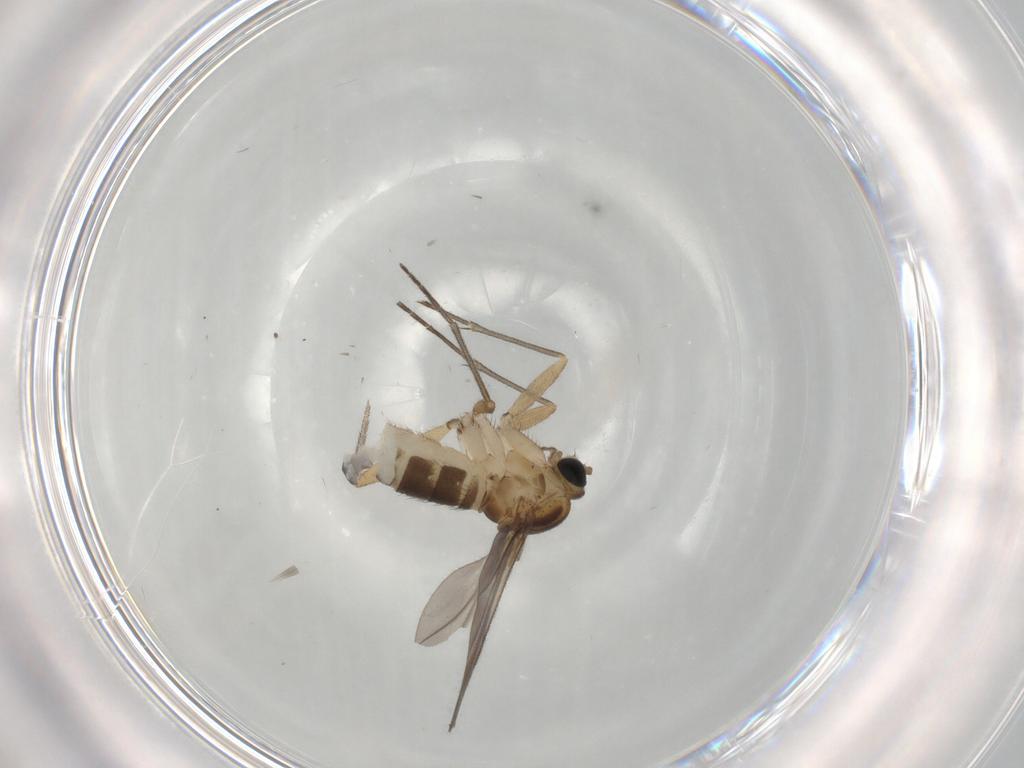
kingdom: Animalia
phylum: Arthropoda
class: Insecta
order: Diptera
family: Sciaridae
